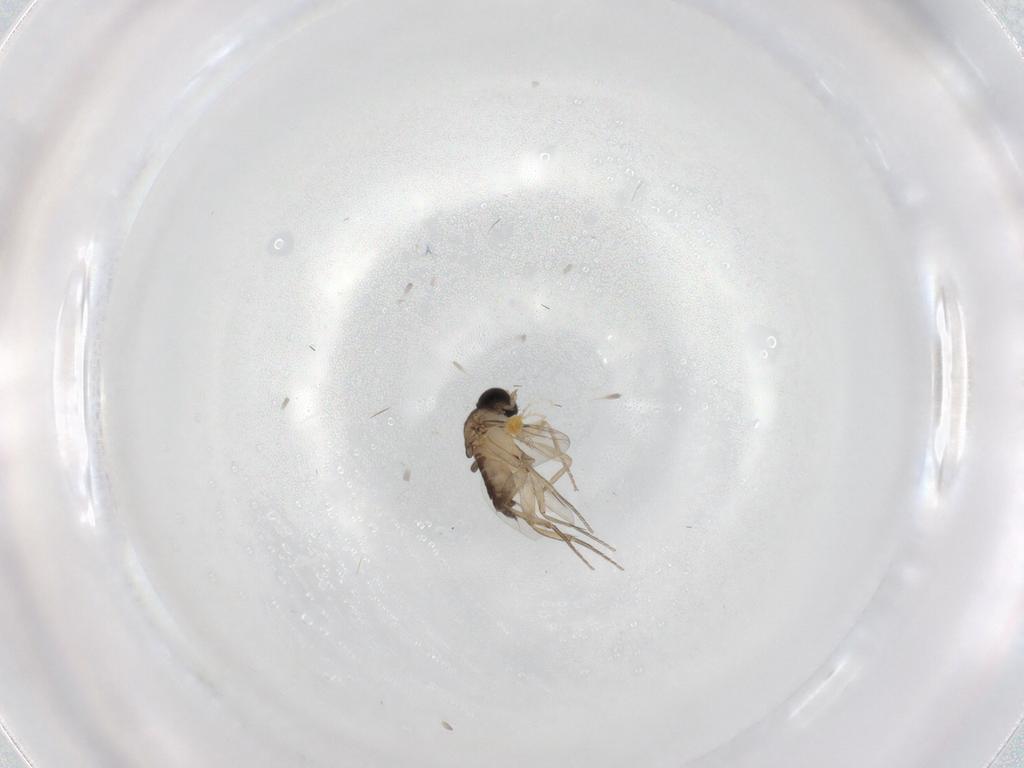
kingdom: Animalia
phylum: Arthropoda
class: Insecta
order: Diptera
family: Phoridae
